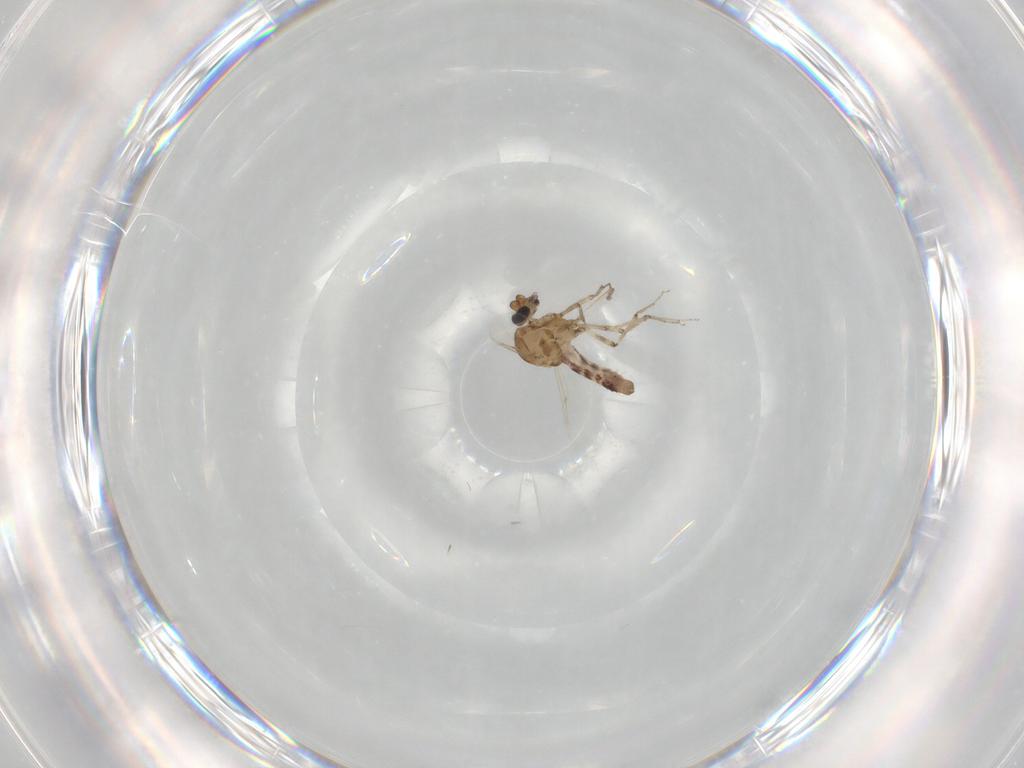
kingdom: Animalia
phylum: Arthropoda
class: Insecta
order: Diptera
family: Ceratopogonidae
